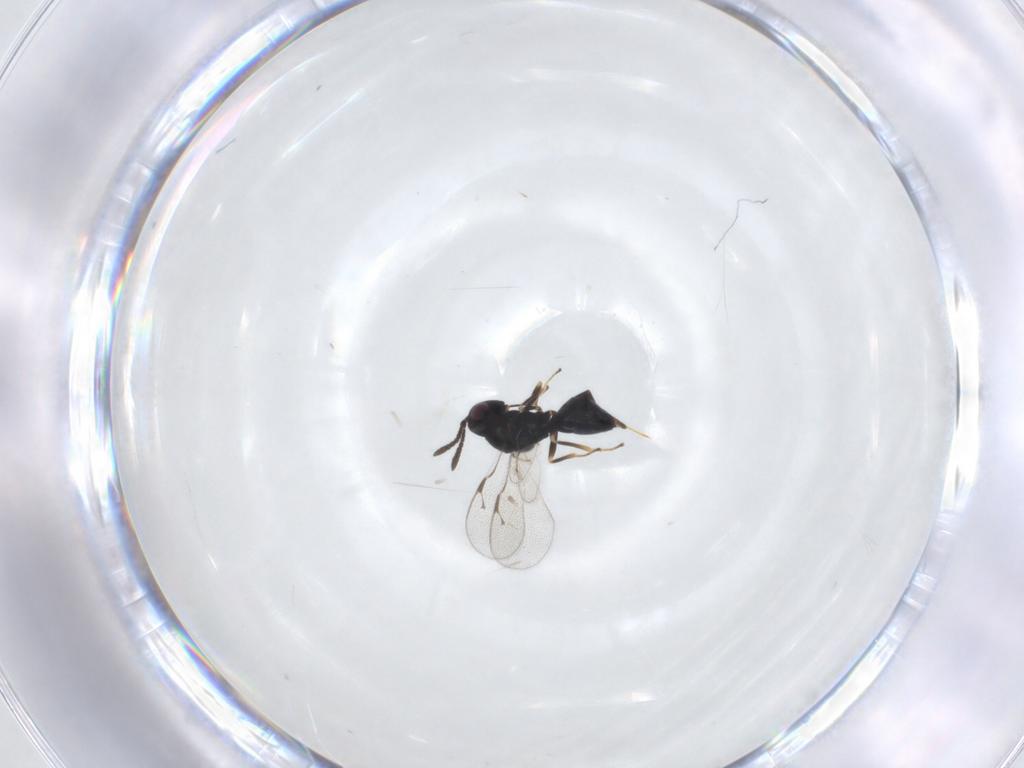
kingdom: Animalia
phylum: Arthropoda
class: Insecta
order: Hymenoptera
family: Pteromalidae
